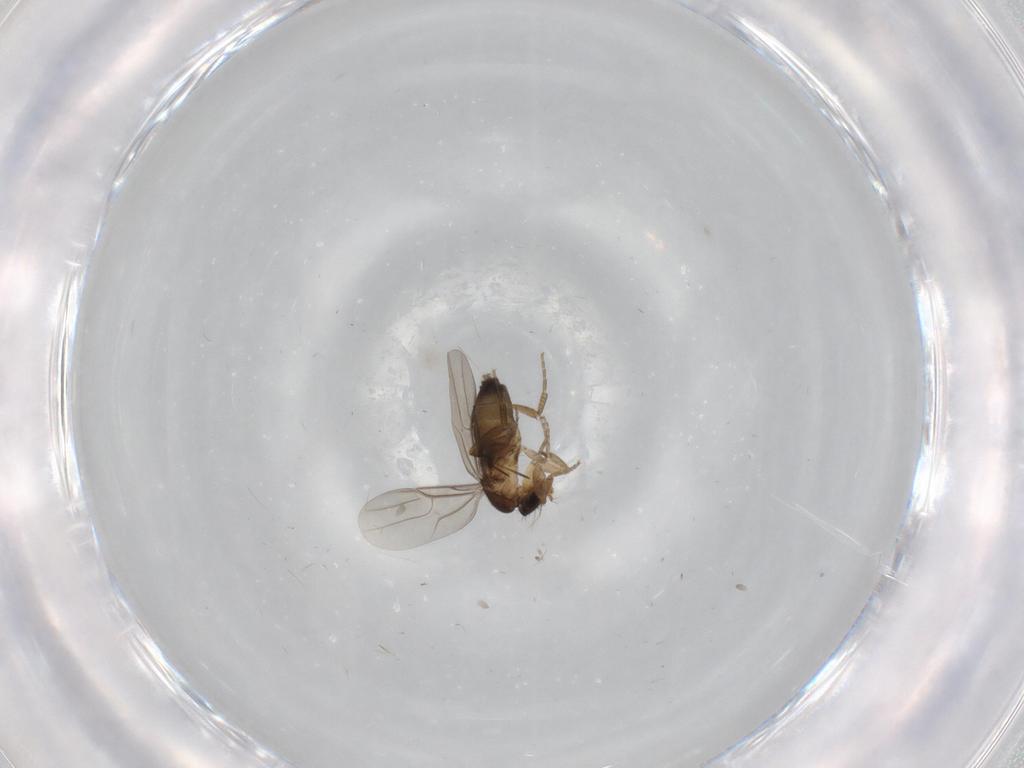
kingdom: Animalia
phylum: Arthropoda
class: Insecta
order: Diptera
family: Phoridae
